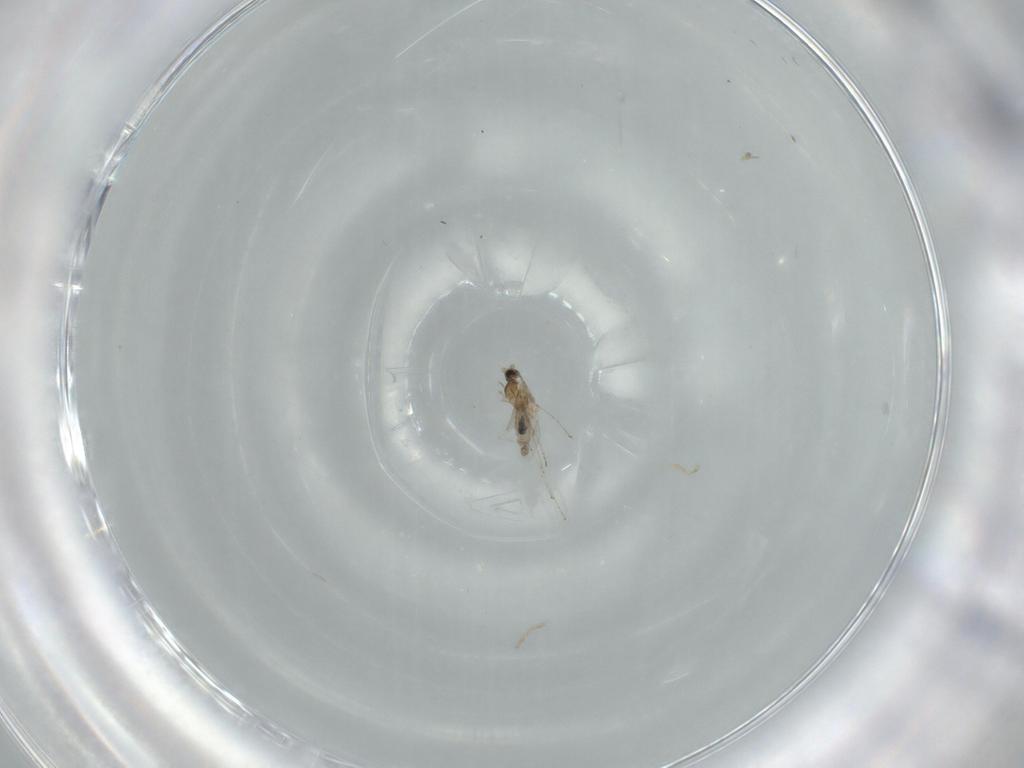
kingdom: Animalia
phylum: Arthropoda
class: Insecta
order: Diptera
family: Cecidomyiidae
